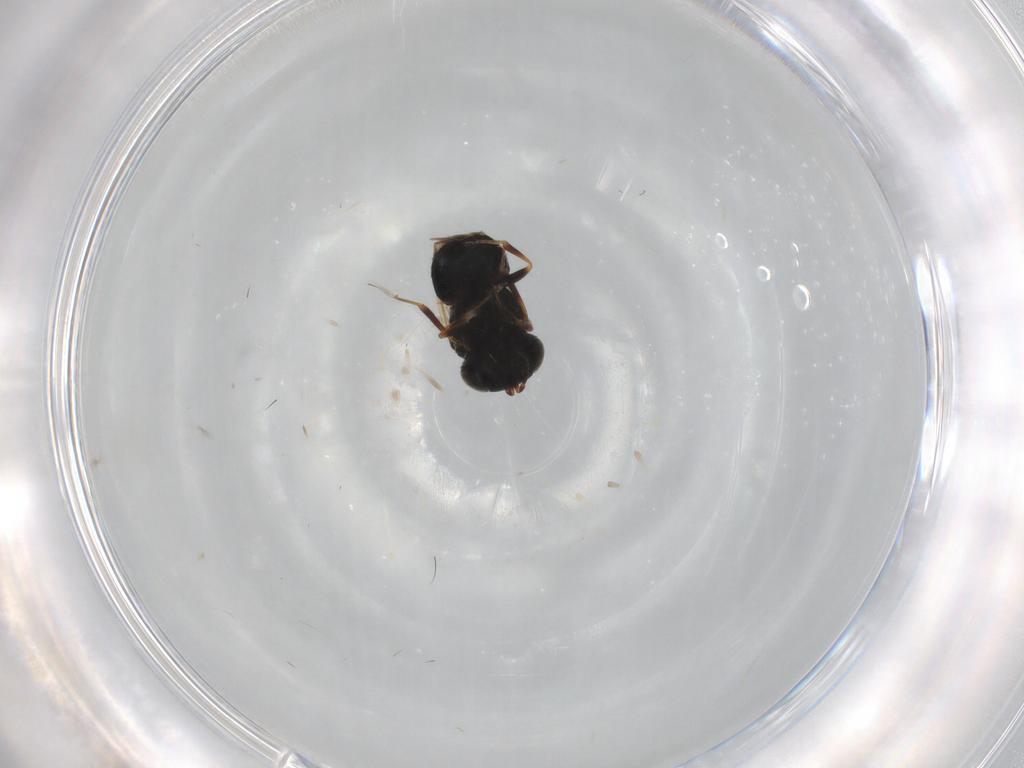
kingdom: Animalia
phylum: Arthropoda
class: Insecta
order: Hymenoptera
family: Scelionidae
